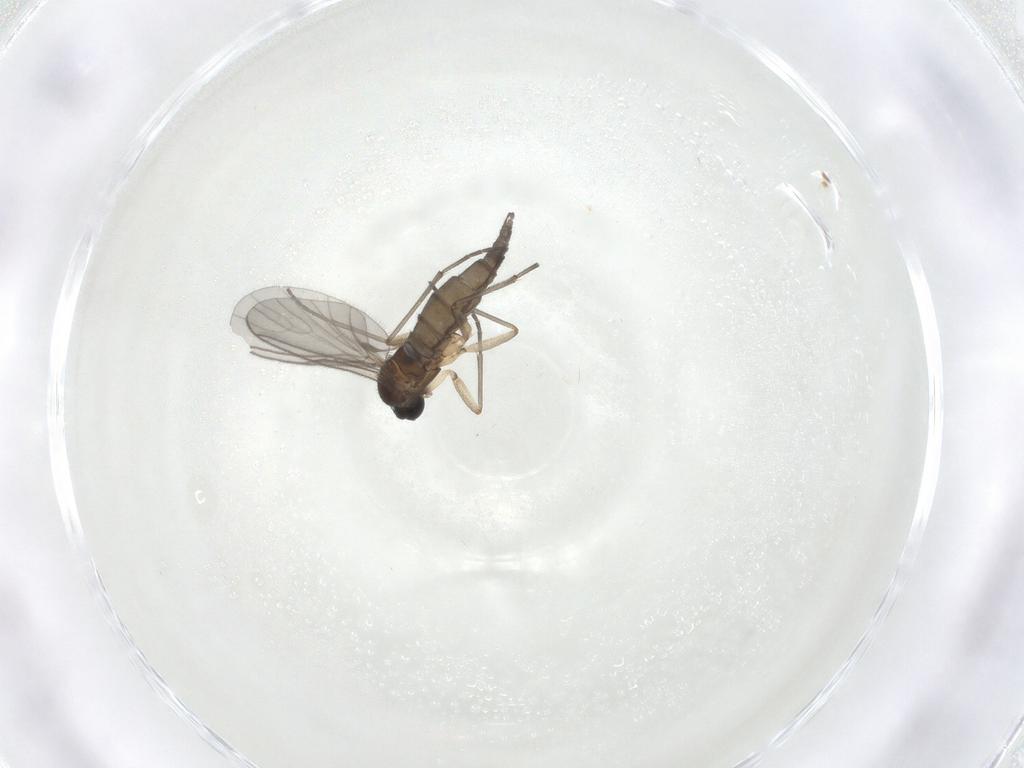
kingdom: Animalia
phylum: Arthropoda
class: Insecta
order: Diptera
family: Sciaridae
